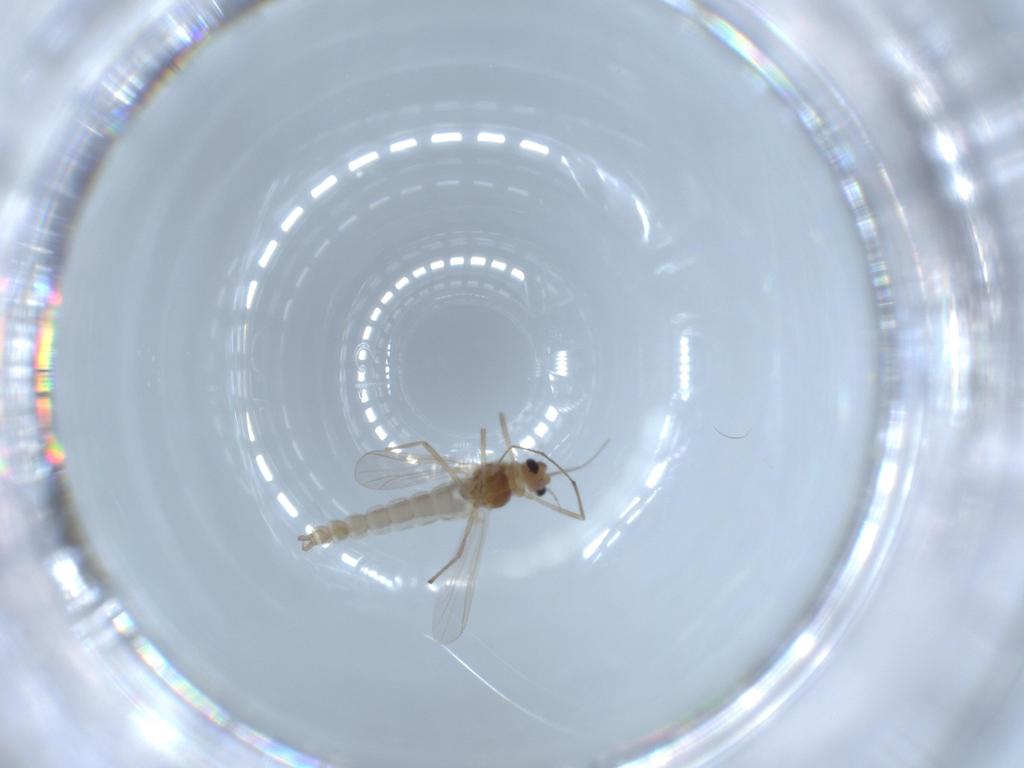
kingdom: Animalia
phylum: Arthropoda
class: Insecta
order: Diptera
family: Chironomidae
